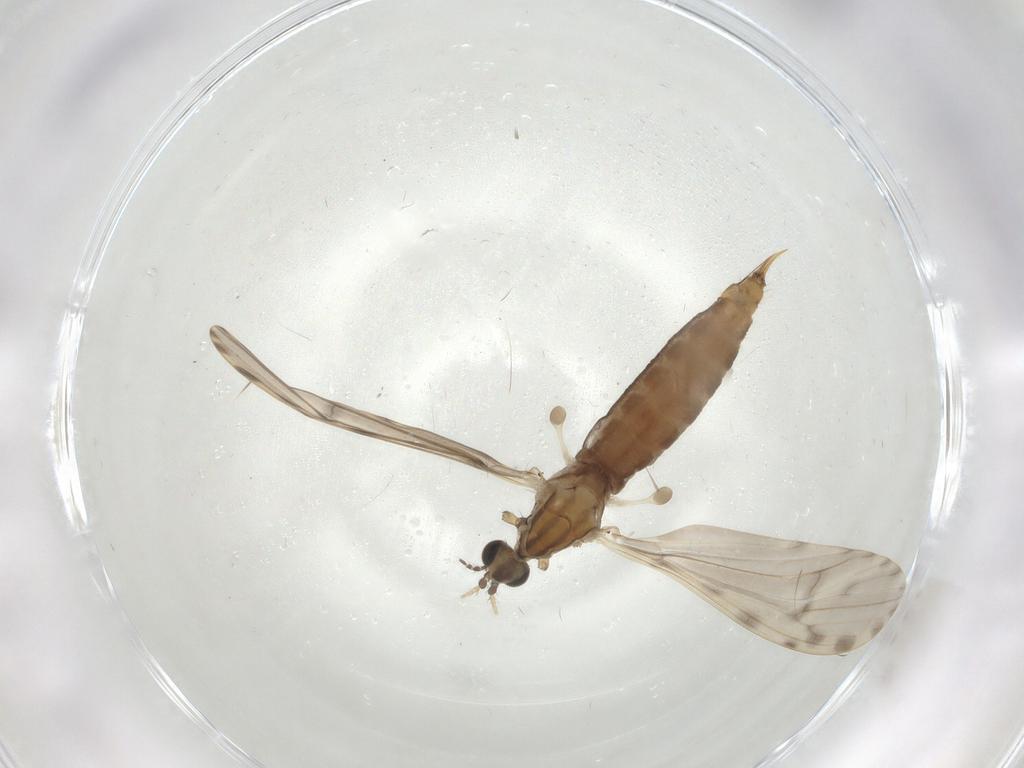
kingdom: Animalia
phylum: Arthropoda
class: Insecta
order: Diptera
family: Limoniidae
